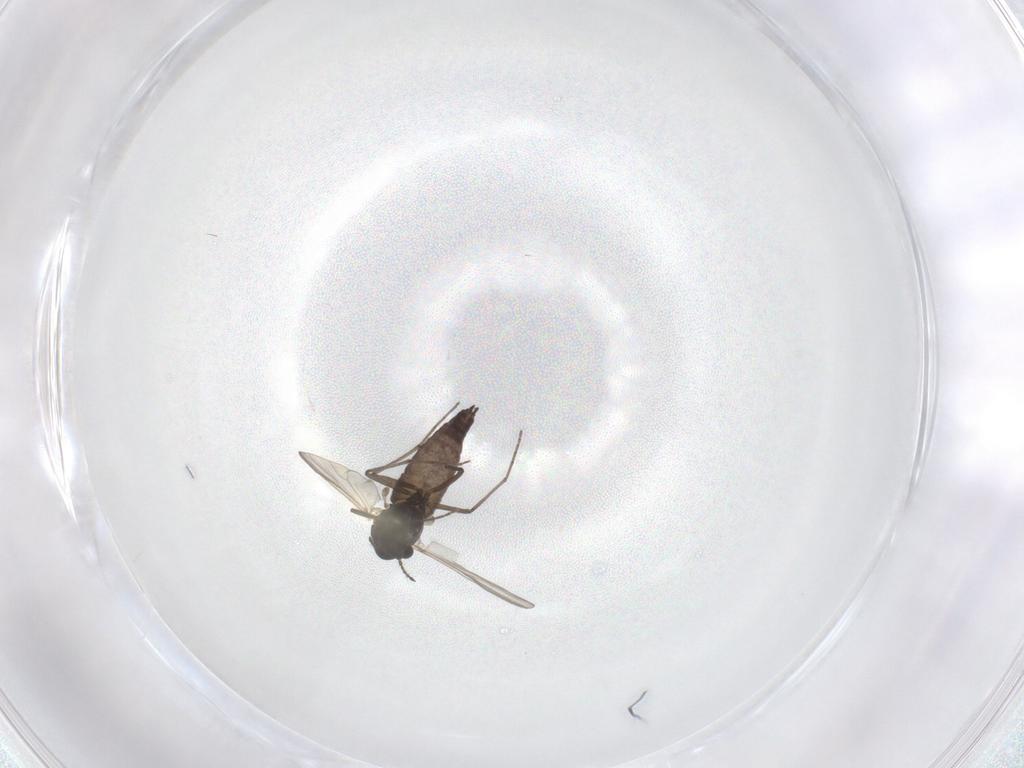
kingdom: Animalia
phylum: Arthropoda
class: Insecta
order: Diptera
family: Chironomidae
